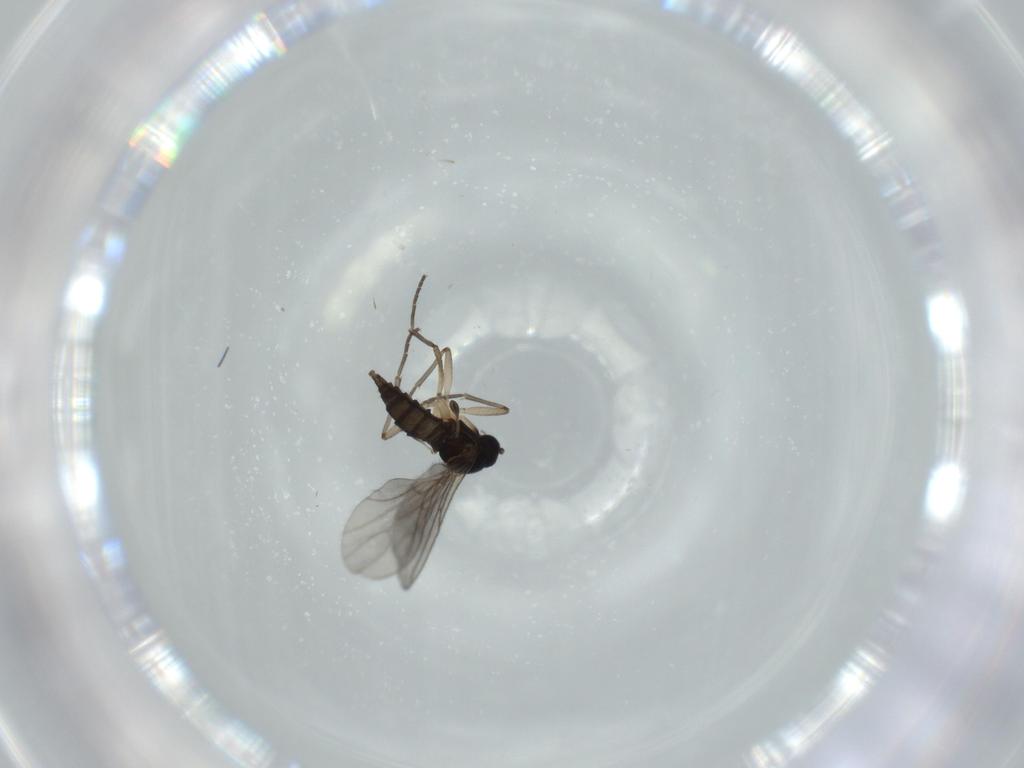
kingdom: Animalia
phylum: Arthropoda
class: Insecta
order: Diptera
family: Sciaridae
